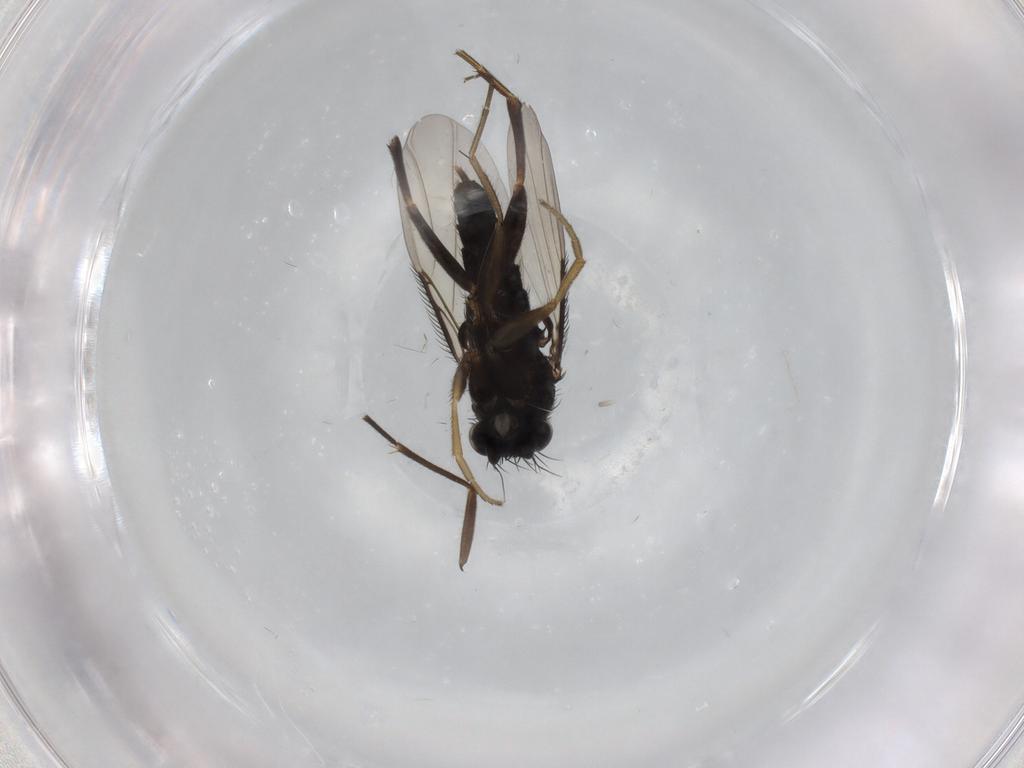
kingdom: Animalia
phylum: Arthropoda
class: Insecta
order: Diptera
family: Phoridae
